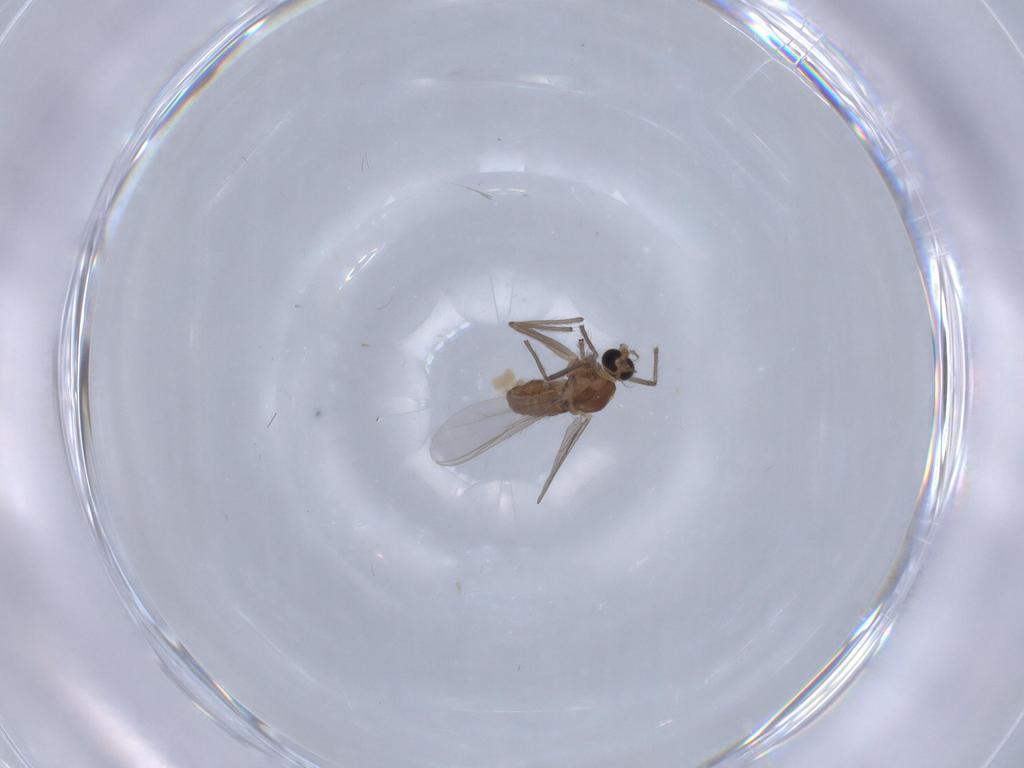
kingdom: Animalia
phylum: Arthropoda
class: Insecta
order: Diptera
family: Chironomidae
